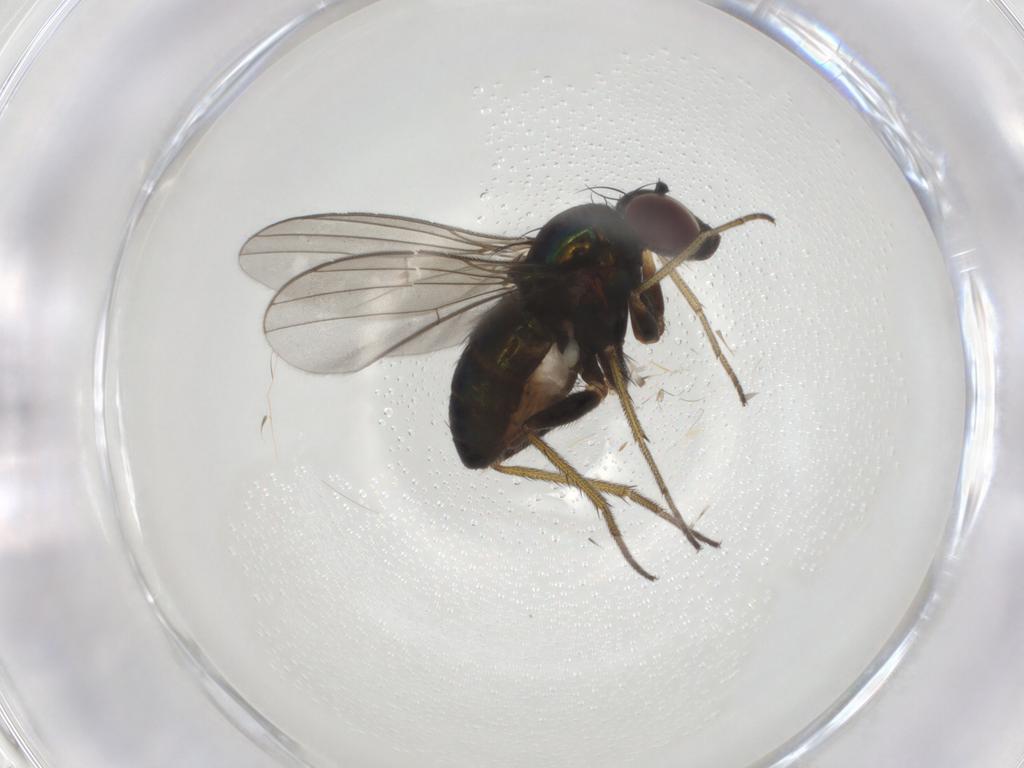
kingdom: Animalia
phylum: Arthropoda
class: Insecta
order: Diptera
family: Dolichopodidae
